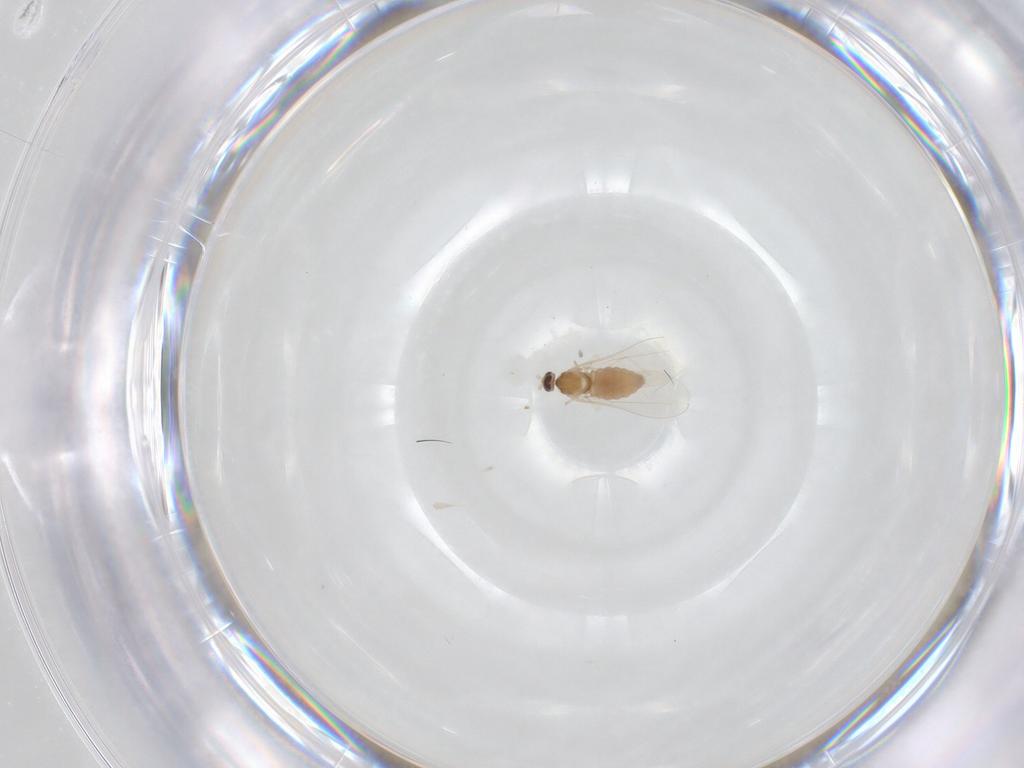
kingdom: Animalia
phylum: Arthropoda
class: Insecta
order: Diptera
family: Cecidomyiidae
